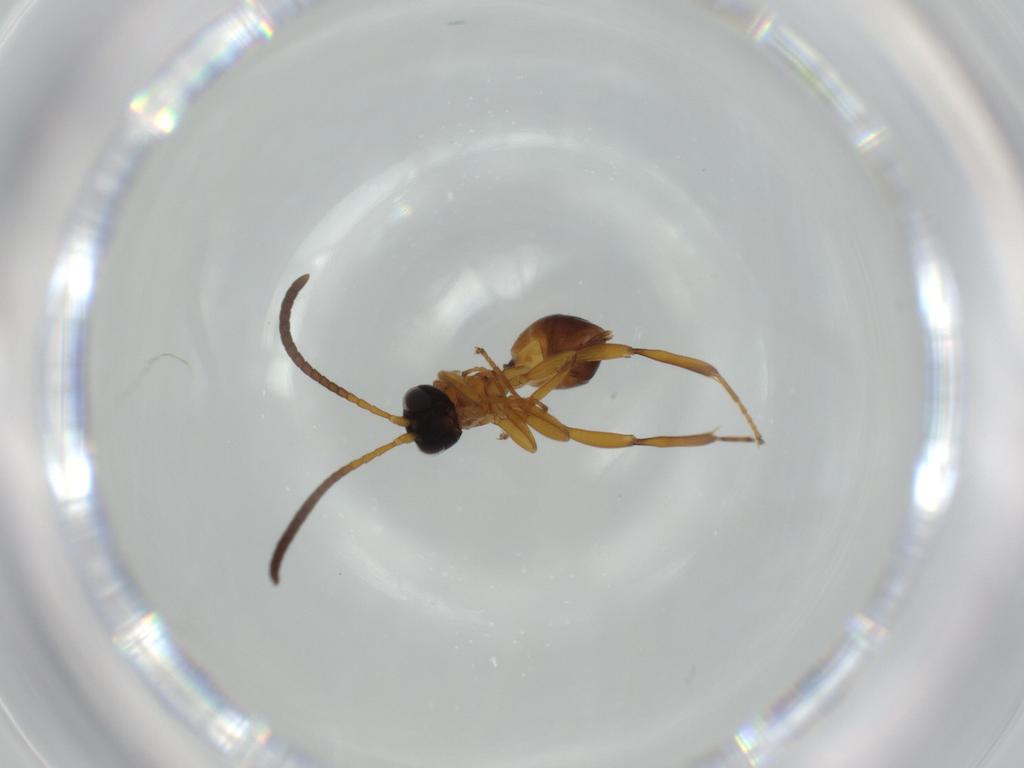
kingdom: Animalia
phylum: Arthropoda
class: Insecta
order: Hymenoptera
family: Ichneumonidae
